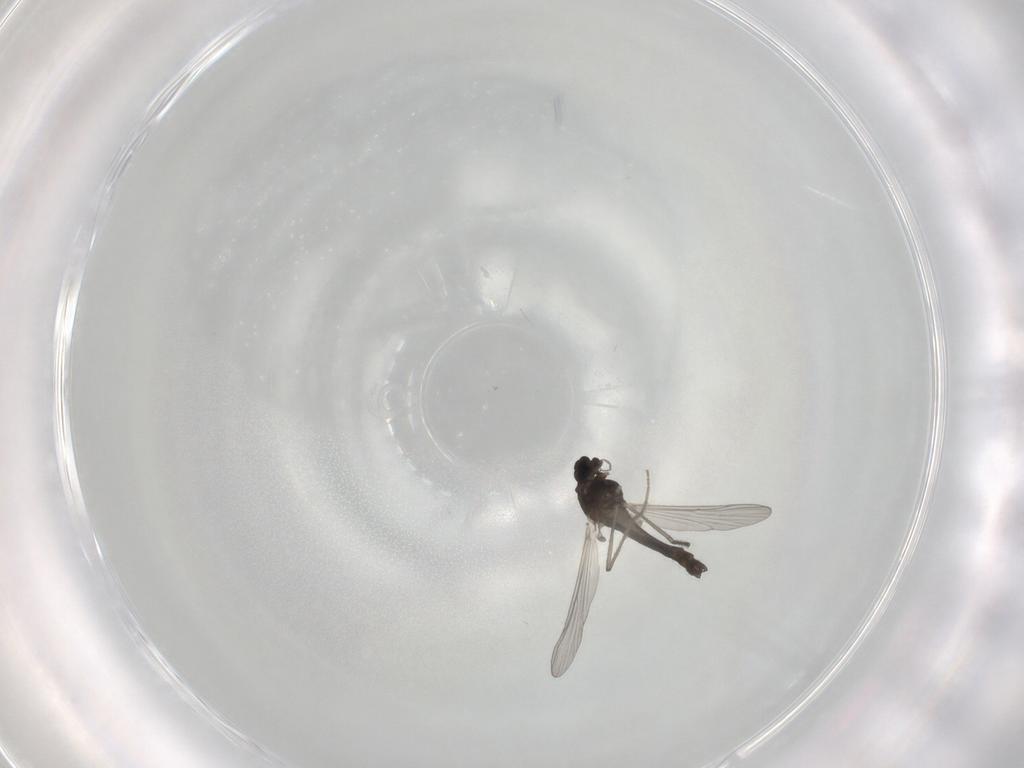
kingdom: Animalia
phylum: Arthropoda
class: Insecta
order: Diptera
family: Chironomidae
